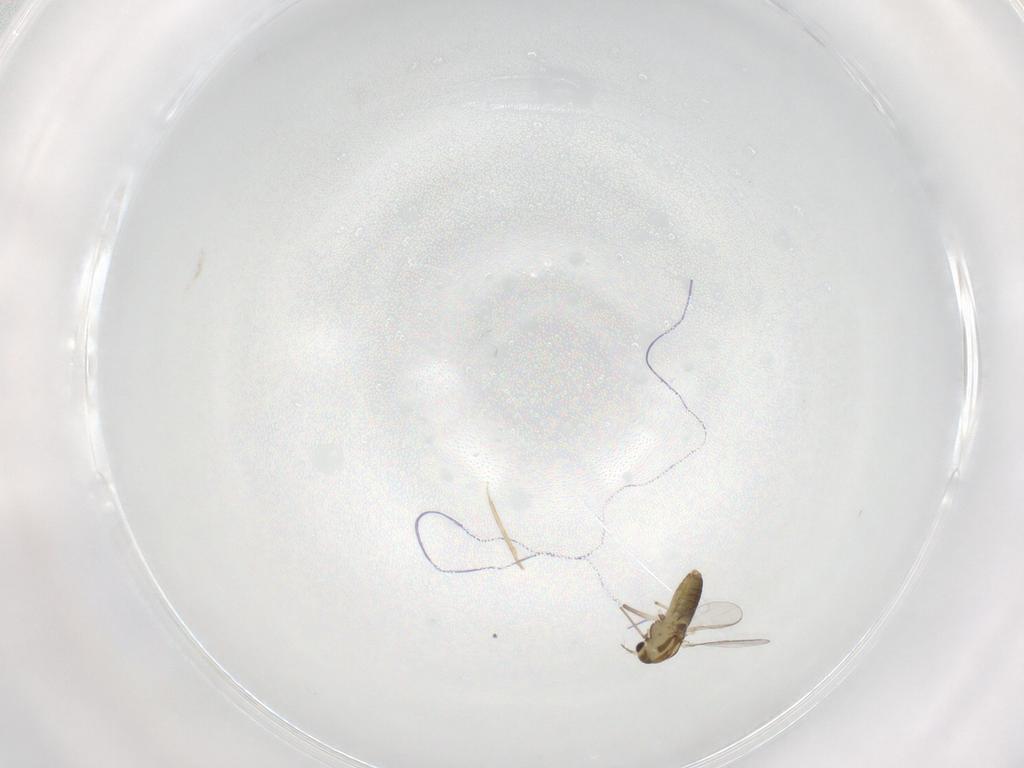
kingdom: Animalia
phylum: Arthropoda
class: Insecta
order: Diptera
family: Chironomidae
